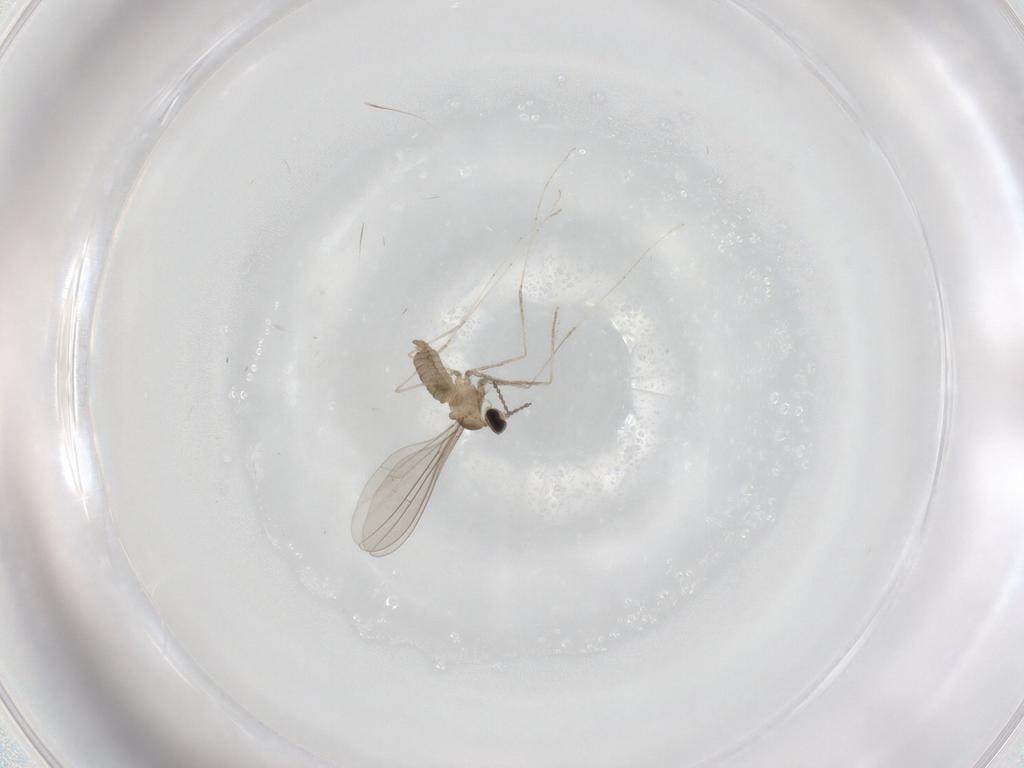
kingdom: Animalia
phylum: Arthropoda
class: Insecta
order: Diptera
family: Cecidomyiidae
